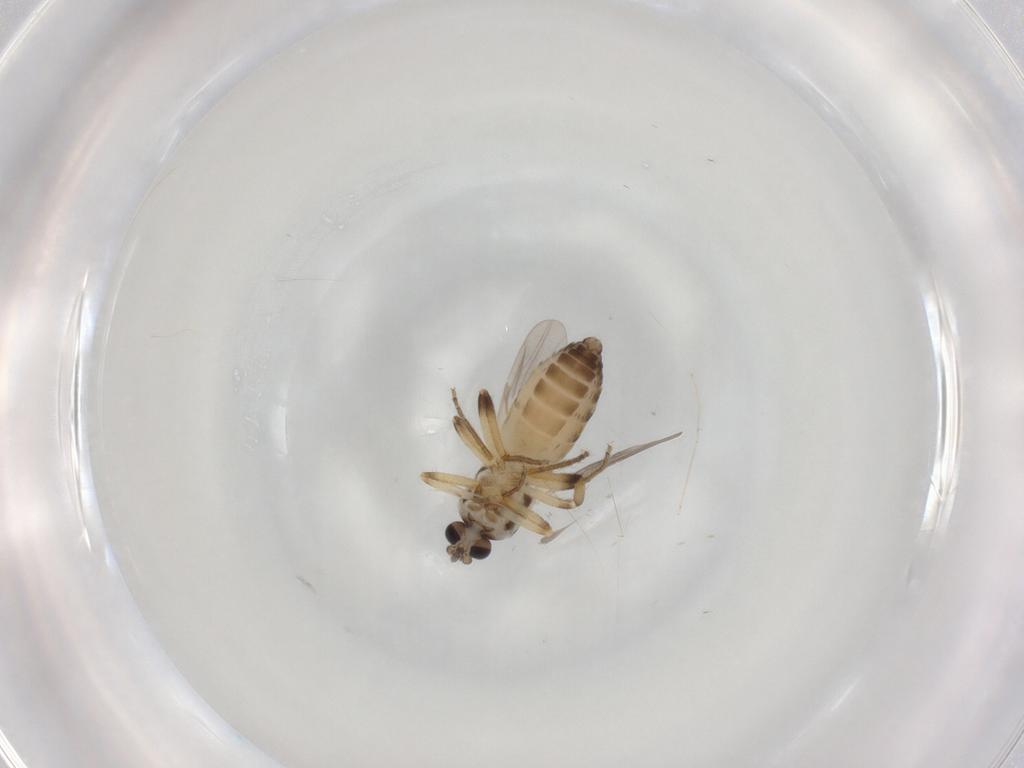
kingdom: Animalia
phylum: Arthropoda
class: Insecta
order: Diptera
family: Ceratopogonidae
